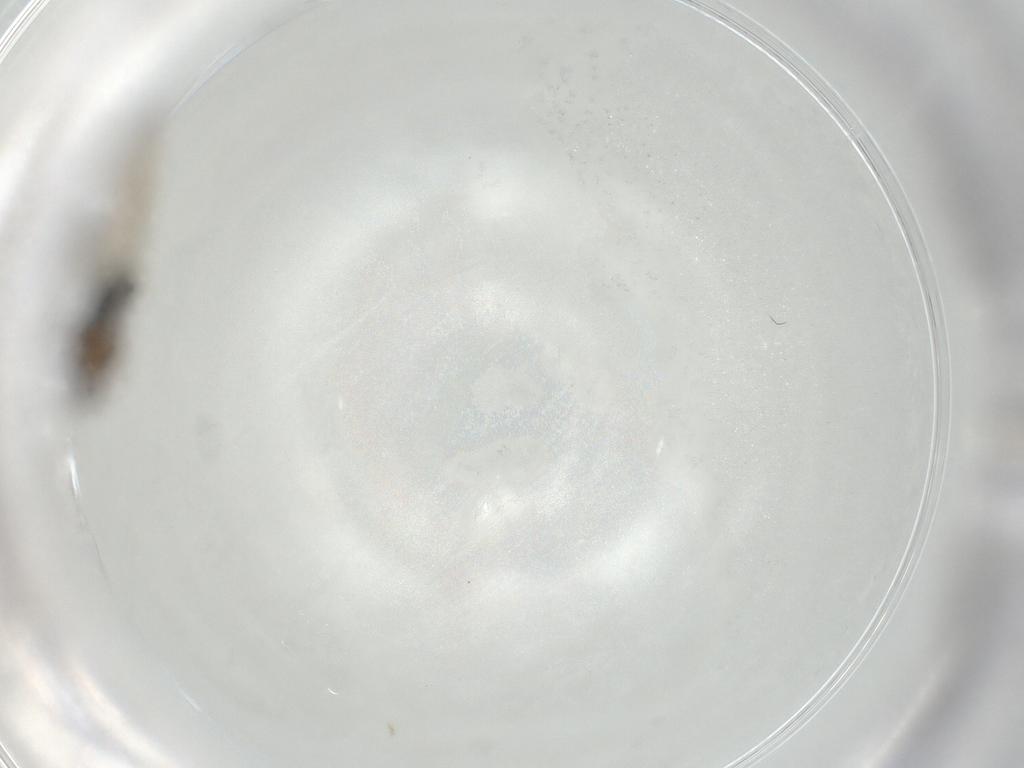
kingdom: Animalia
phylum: Arthropoda
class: Insecta
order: Diptera
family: Phoridae
